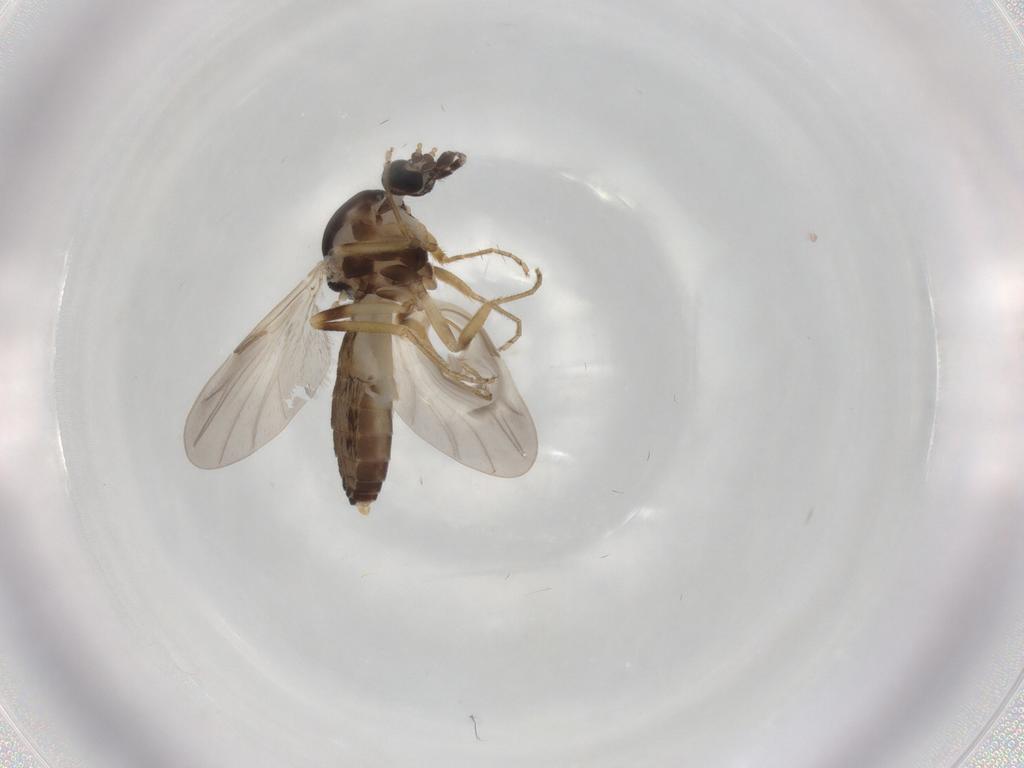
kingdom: Animalia
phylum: Arthropoda
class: Insecta
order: Diptera
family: Ceratopogonidae
